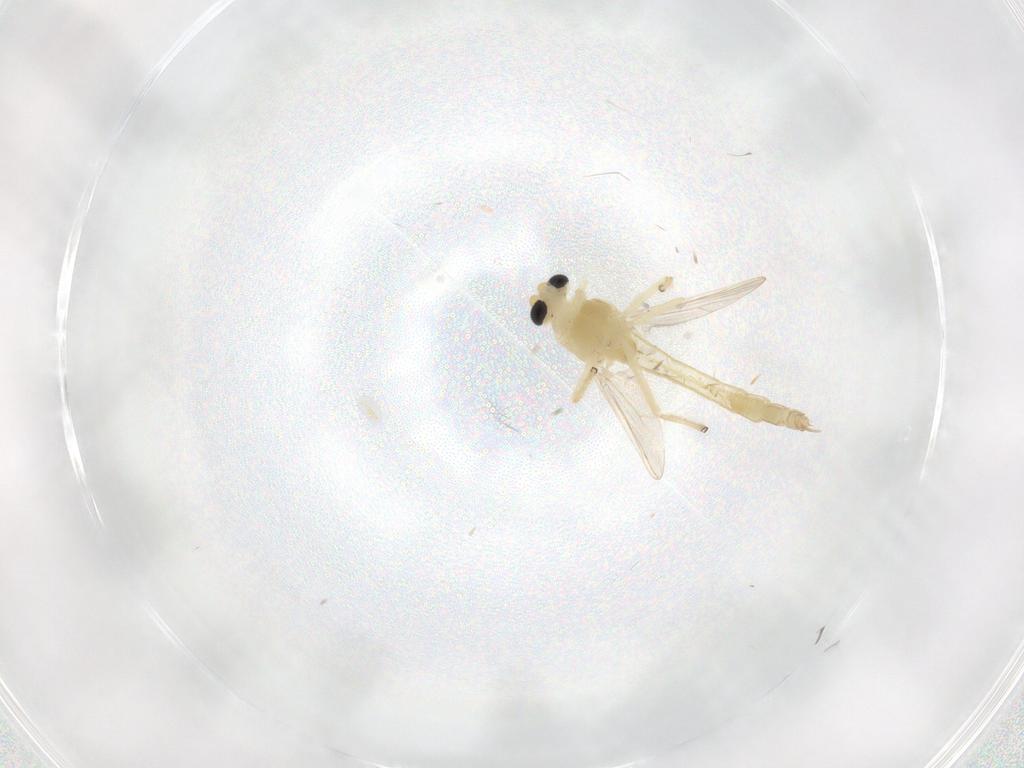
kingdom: Animalia
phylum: Arthropoda
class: Insecta
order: Diptera
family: Chironomidae
